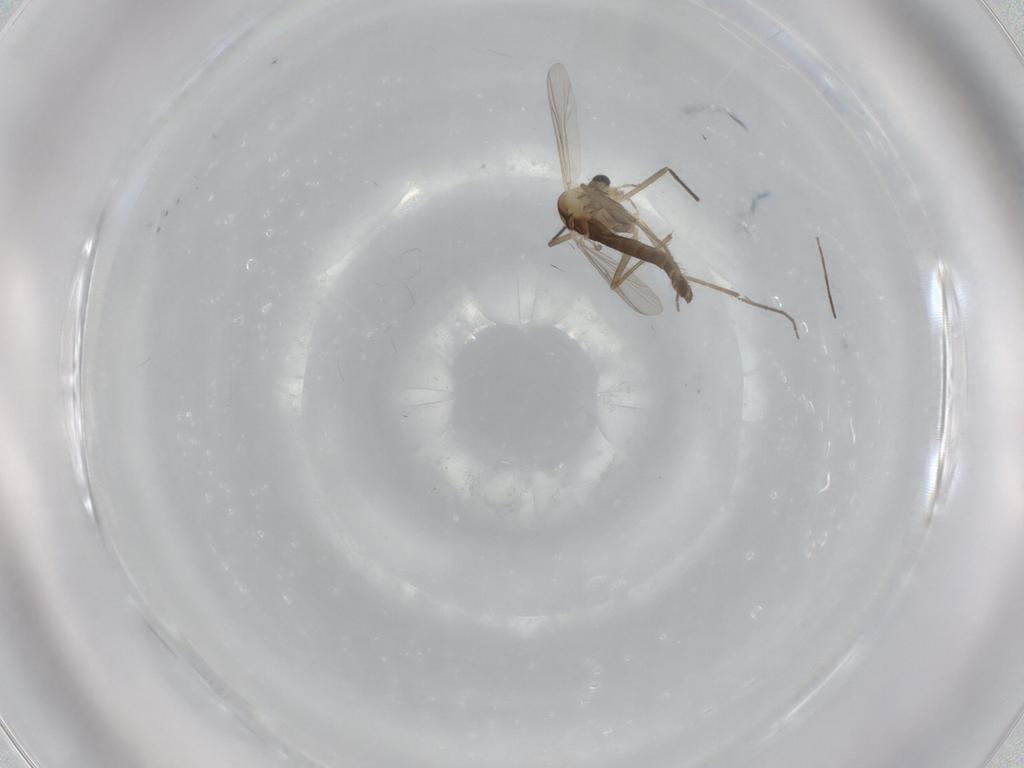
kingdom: Animalia
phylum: Arthropoda
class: Insecta
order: Diptera
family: Chironomidae
